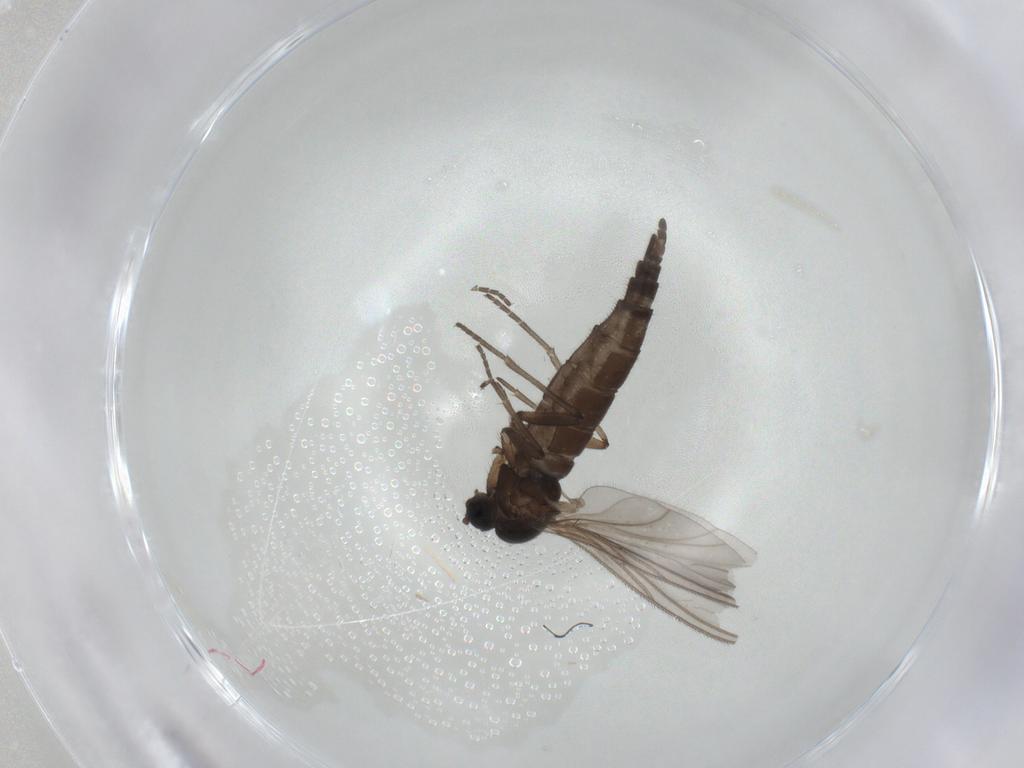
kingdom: Animalia
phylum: Arthropoda
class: Insecta
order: Diptera
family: Sciaridae
